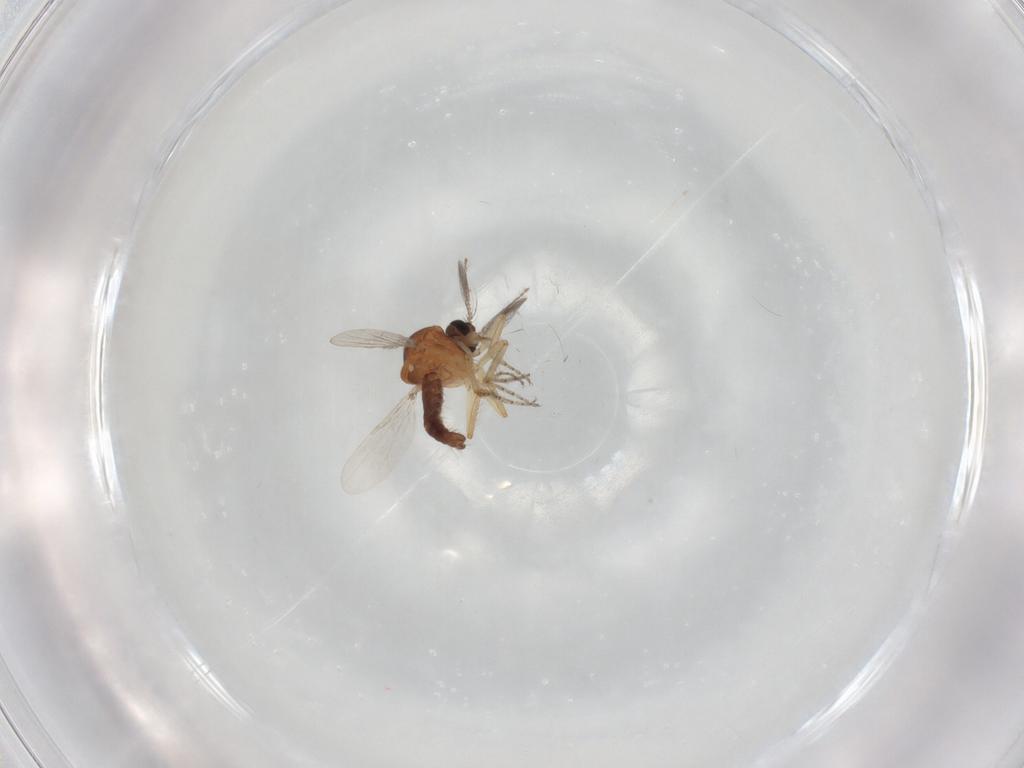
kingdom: Animalia
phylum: Arthropoda
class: Insecta
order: Diptera
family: Ceratopogonidae
